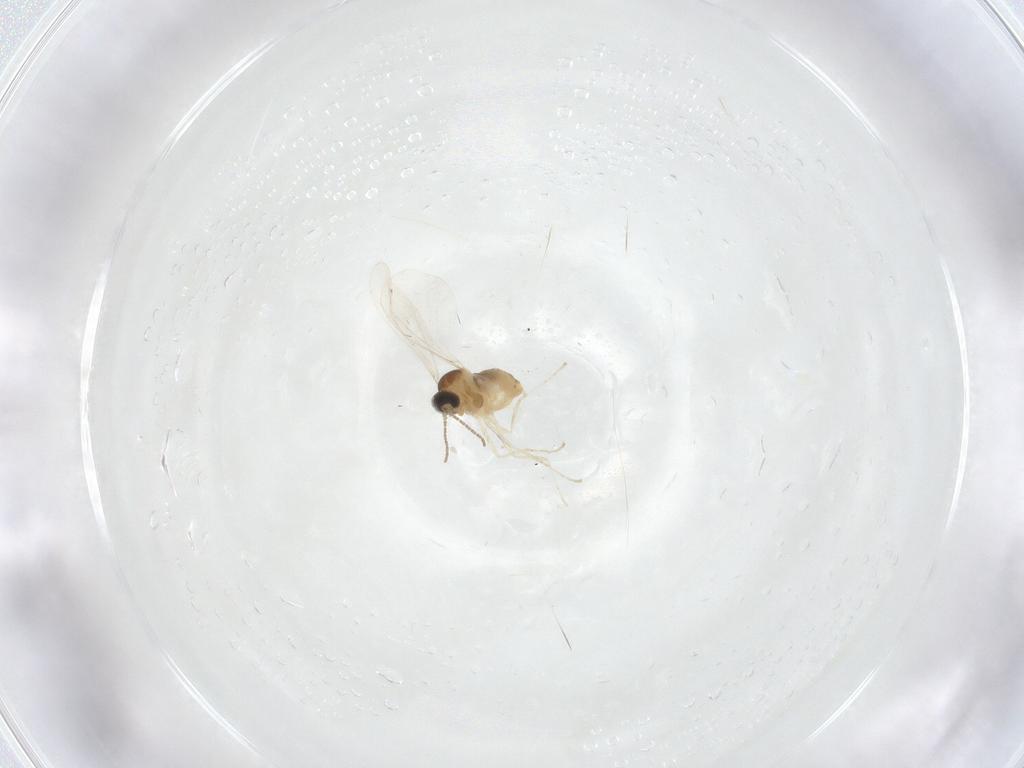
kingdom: Animalia
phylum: Arthropoda
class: Insecta
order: Diptera
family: Cecidomyiidae
